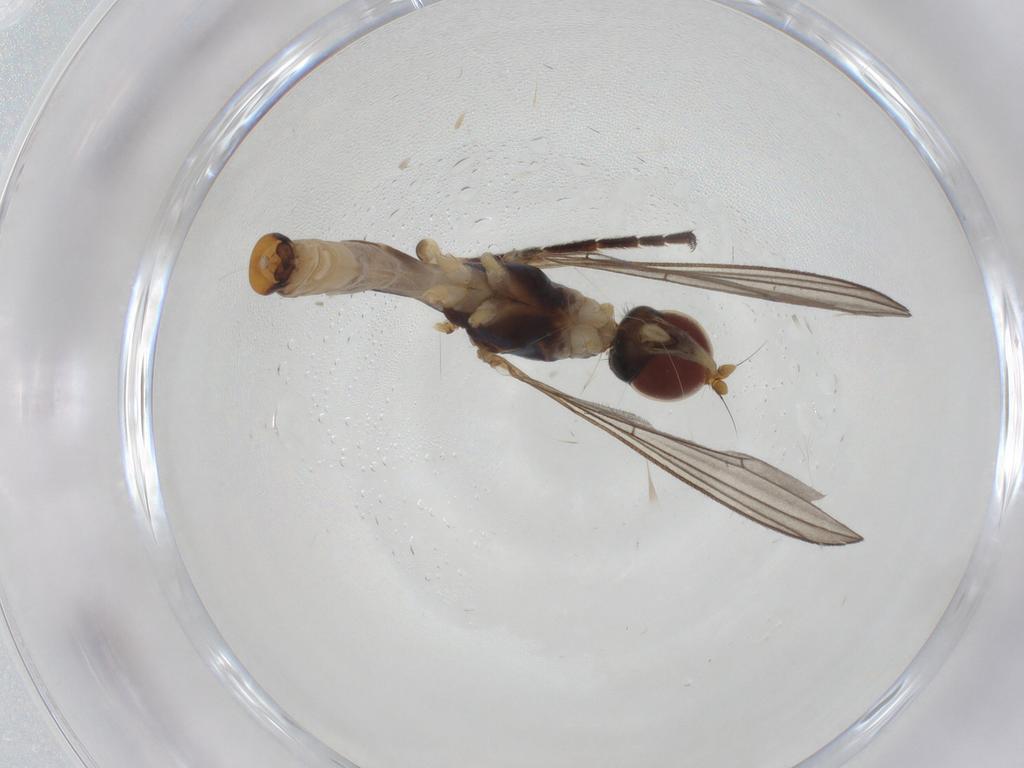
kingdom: Animalia
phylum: Arthropoda
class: Insecta
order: Diptera
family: Micropezidae
